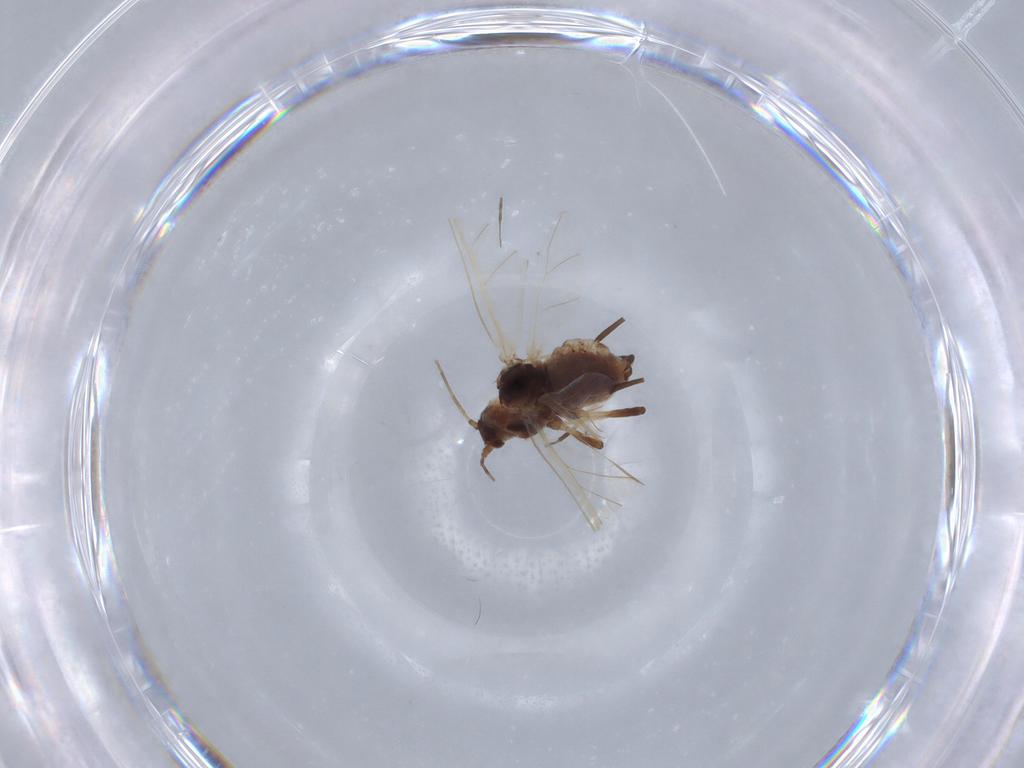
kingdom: Animalia
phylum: Arthropoda
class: Insecta
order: Hemiptera
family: Aphididae
